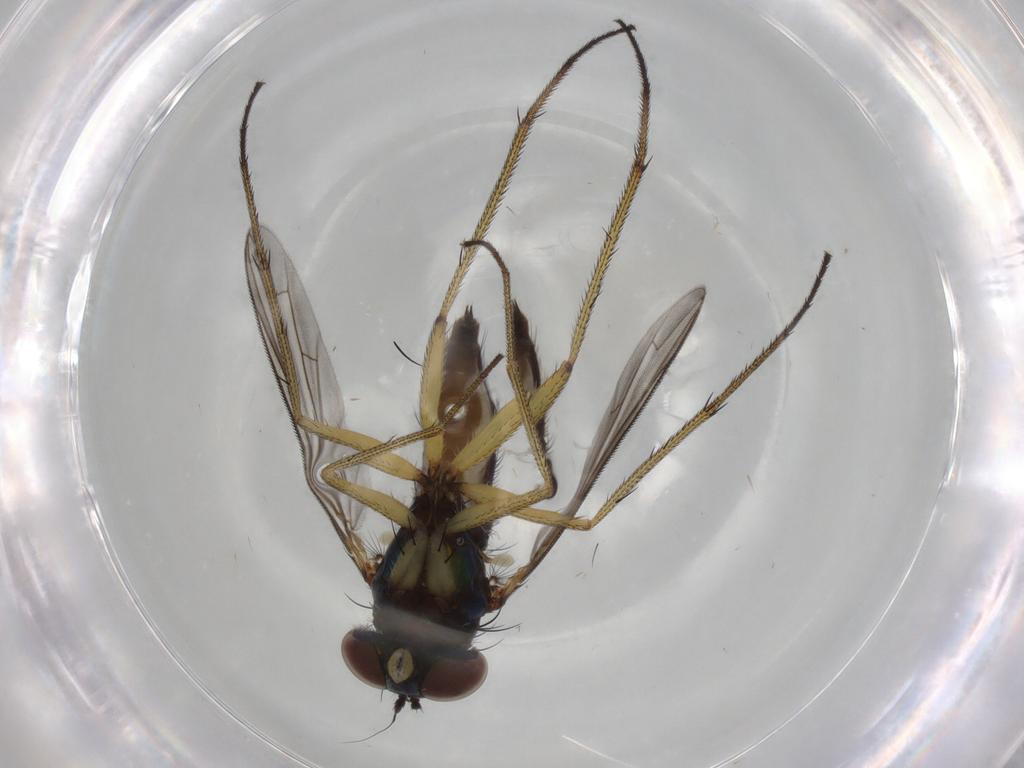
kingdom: Animalia
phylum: Arthropoda
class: Insecta
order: Diptera
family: Dolichopodidae
